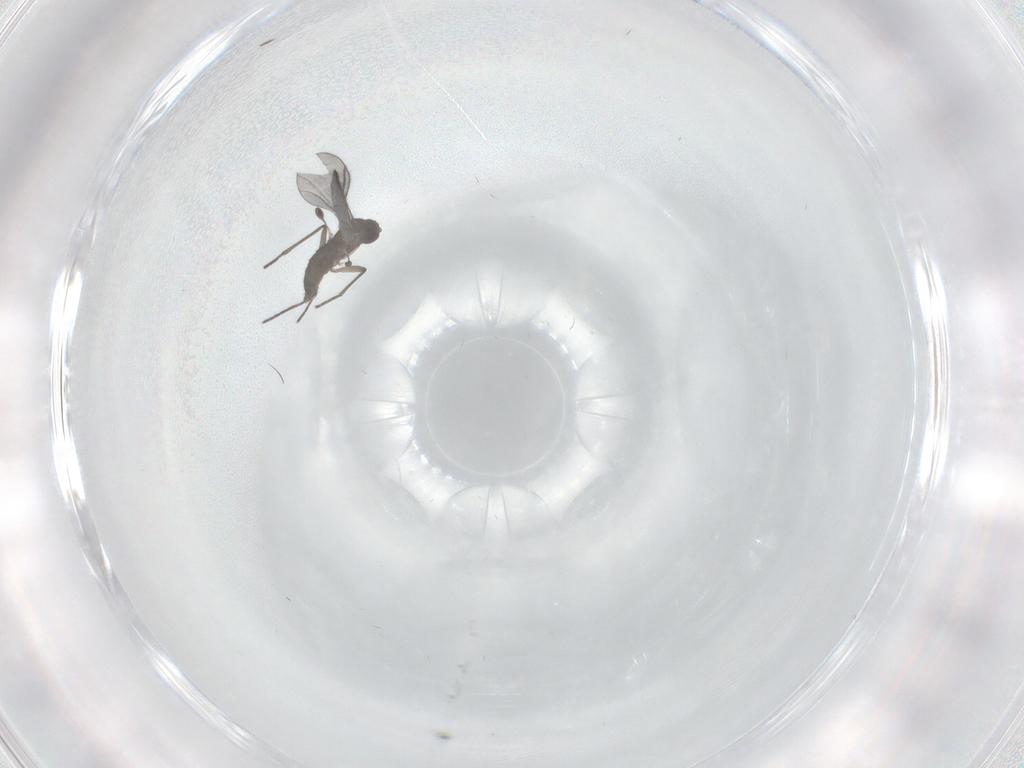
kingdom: Animalia
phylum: Arthropoda
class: Insecta
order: Diptera
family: Sciaridae
